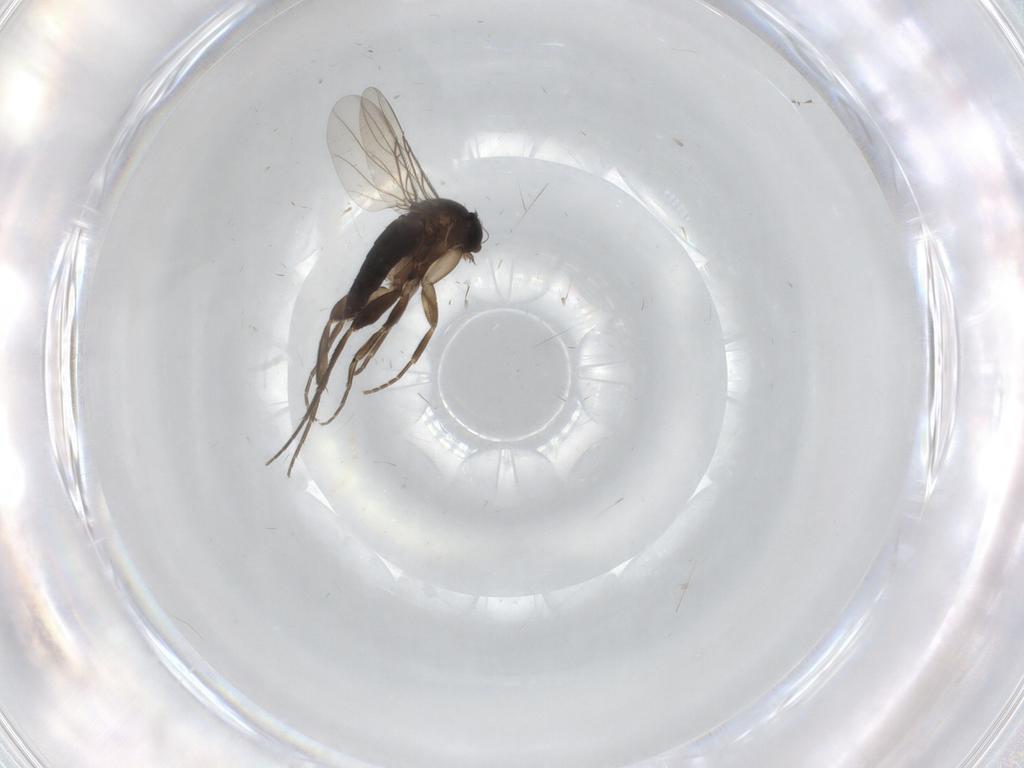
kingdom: Animalia
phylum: Arthropoda
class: Insecta
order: Diptera
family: Phoridae
